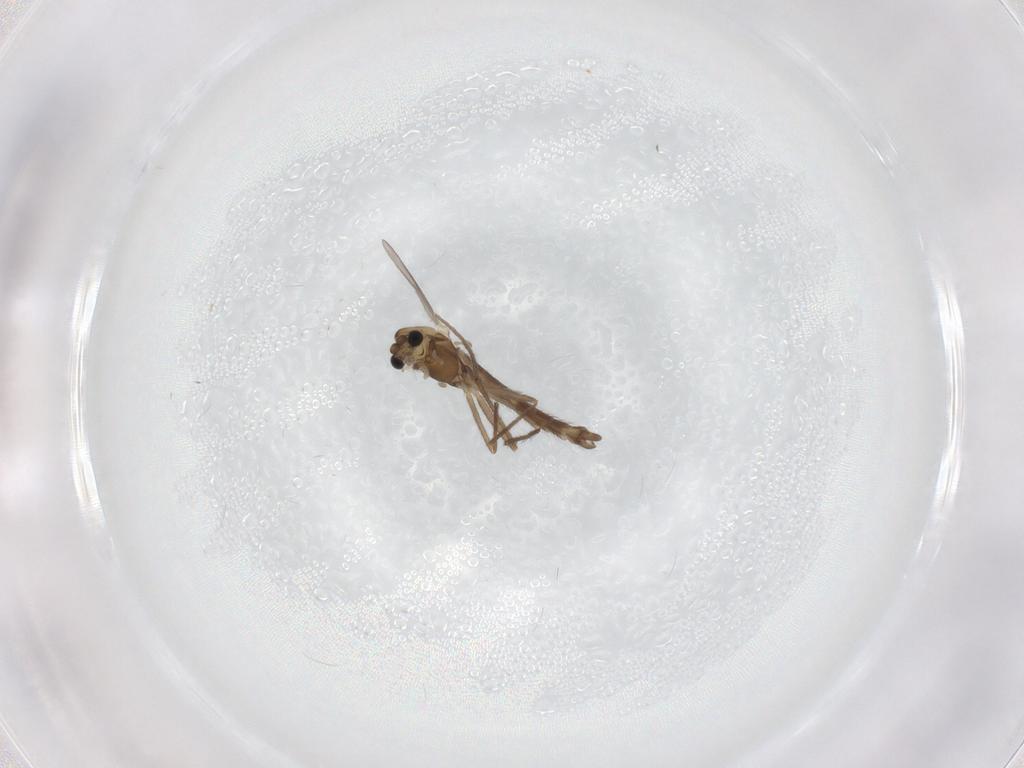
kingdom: Animalia
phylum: Arthropoda
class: Insecta
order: Diptera
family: Chironomidae
